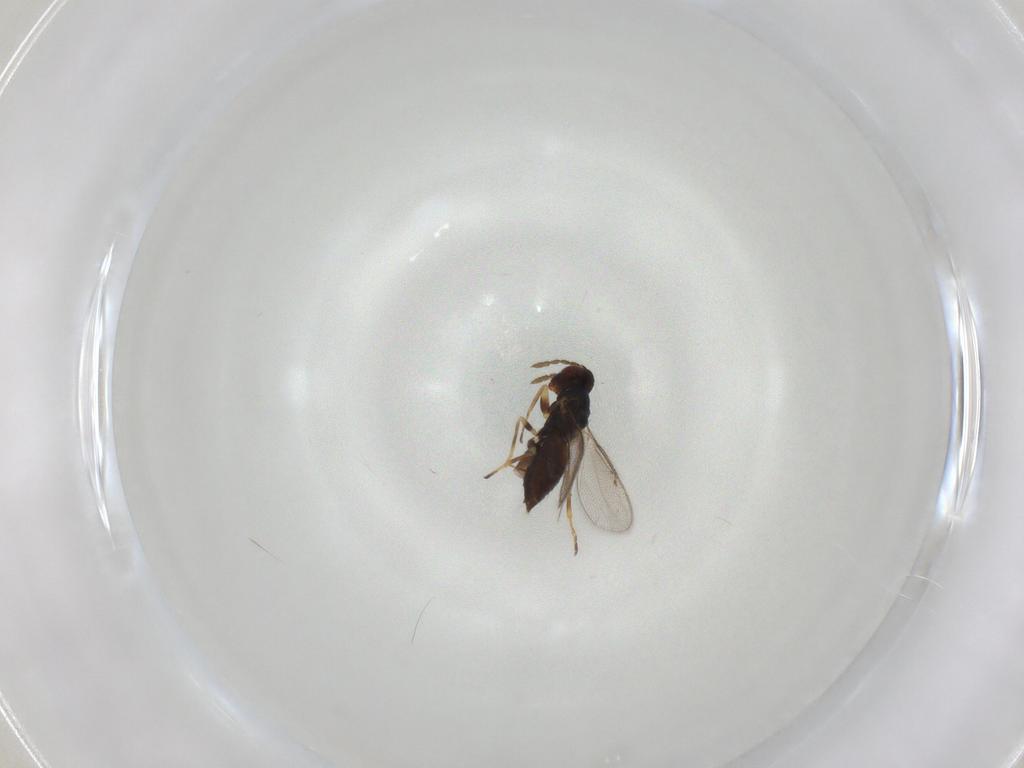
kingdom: Animalia
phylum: Arthropoda
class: Insecta
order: Hymenoptera
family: Eulophidae
